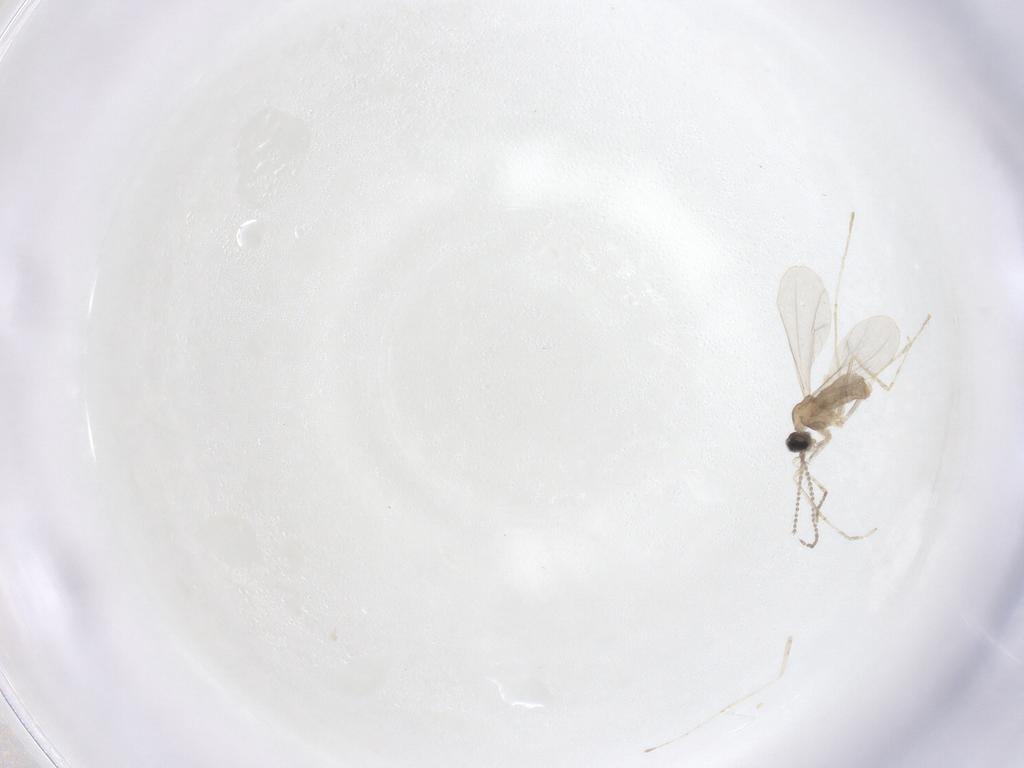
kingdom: Animalia
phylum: Arthropoda
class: Insecta
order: Diptera
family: Cecidomyiidae
